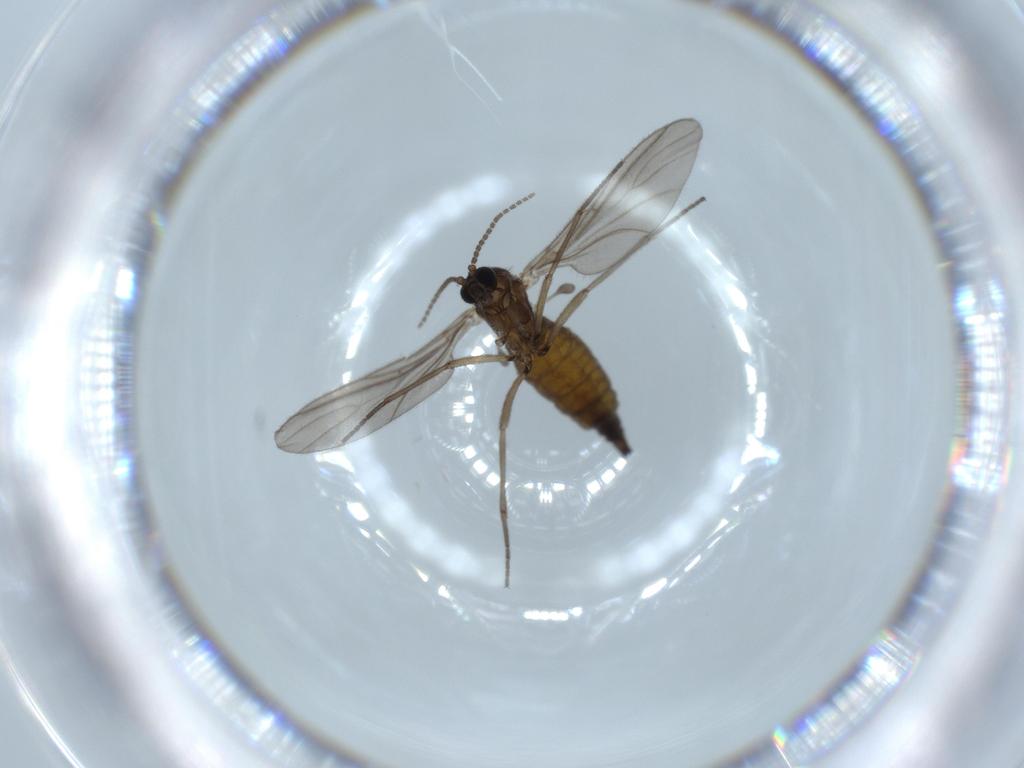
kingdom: Animalia
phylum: Arthropoda
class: Insecta
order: Diptera
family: Sciaridae
